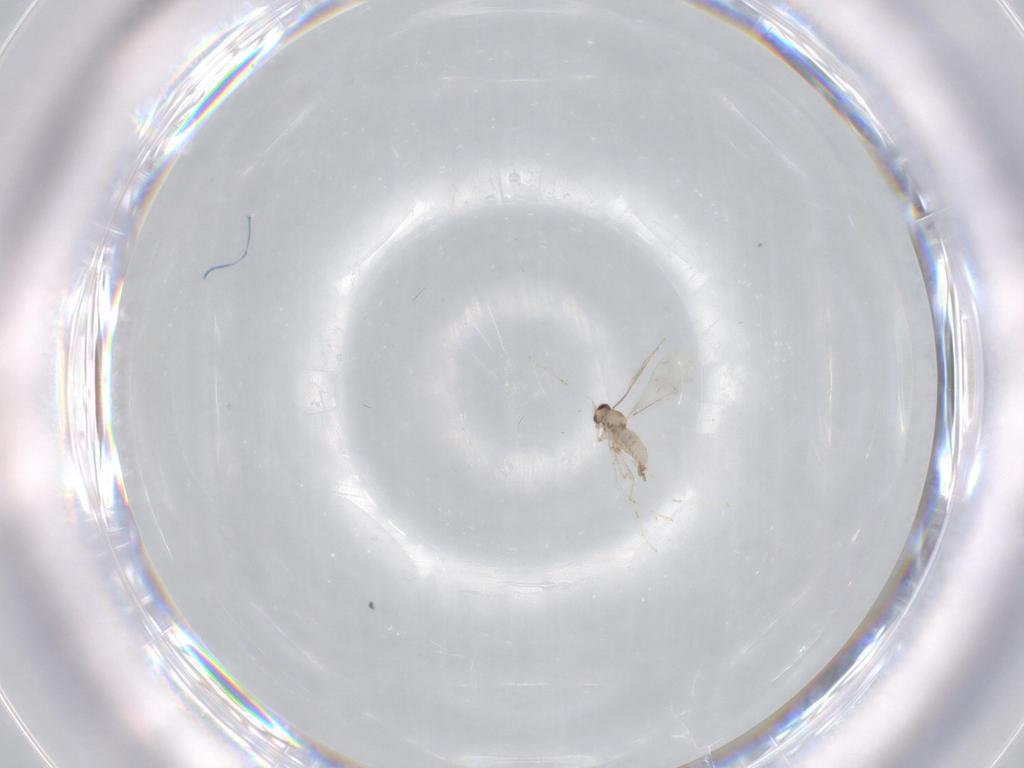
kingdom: Animalia
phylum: Arthropoda
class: Insecta
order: Diptera
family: Cecidomyiidae
